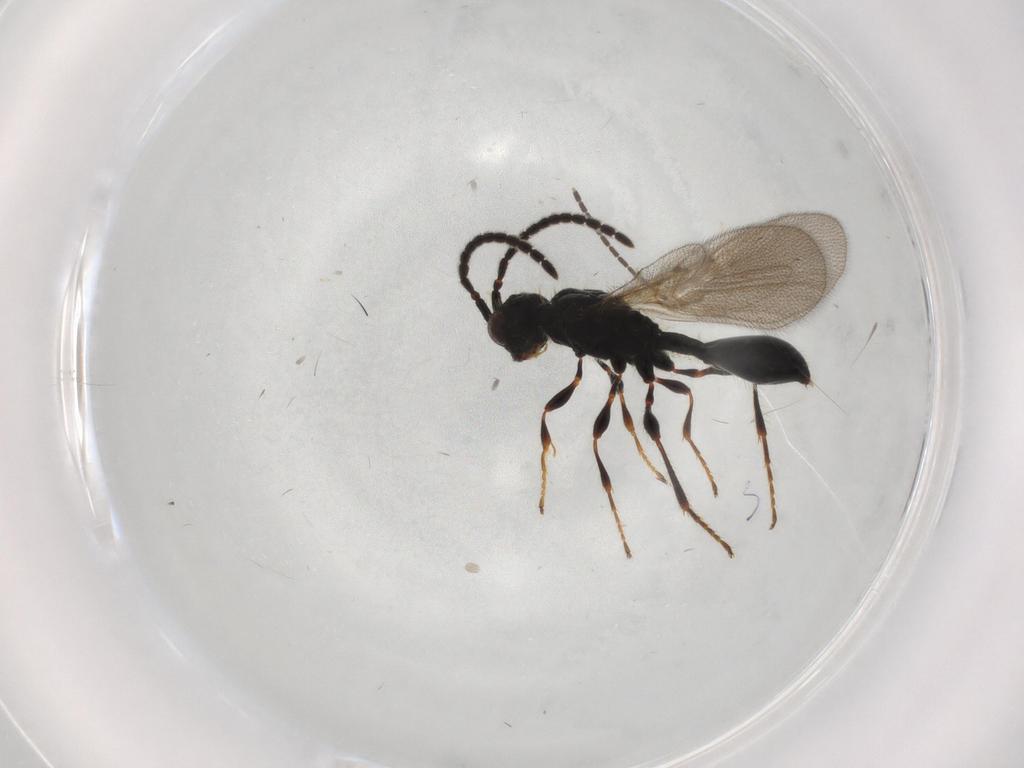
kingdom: Animalia
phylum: Arthropoda
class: Insecta
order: Hymenoptera
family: Diapriidae
